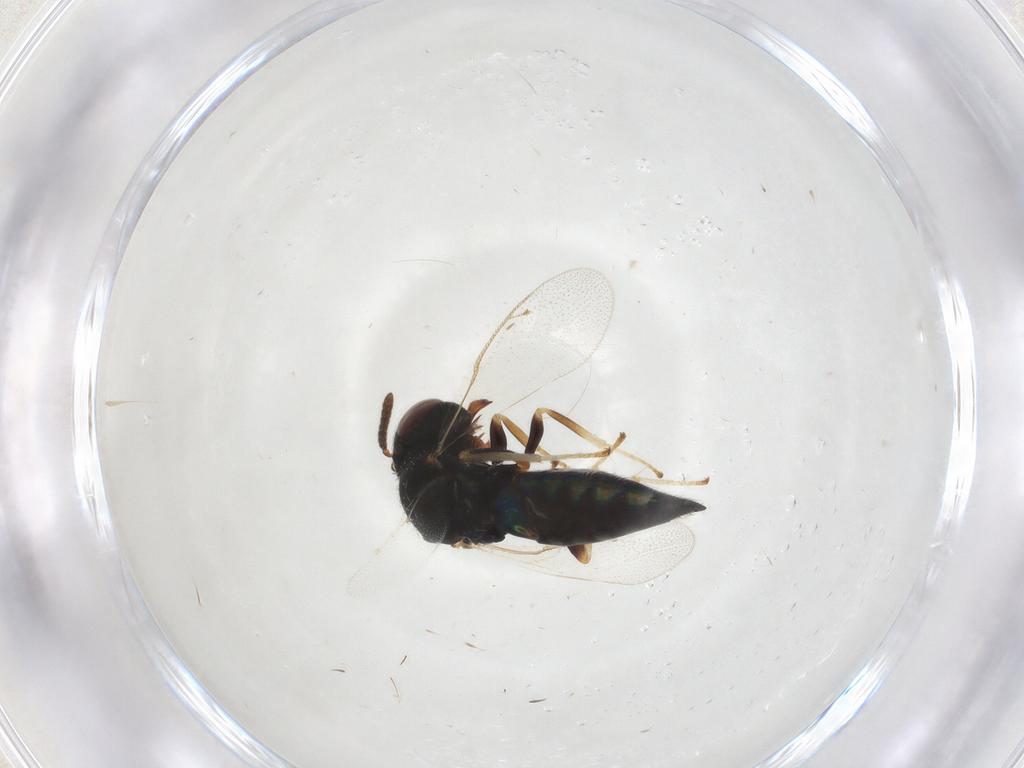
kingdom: Animalia
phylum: Arthropoda
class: Insecta
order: Hymenoptera
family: Pteromalidae
